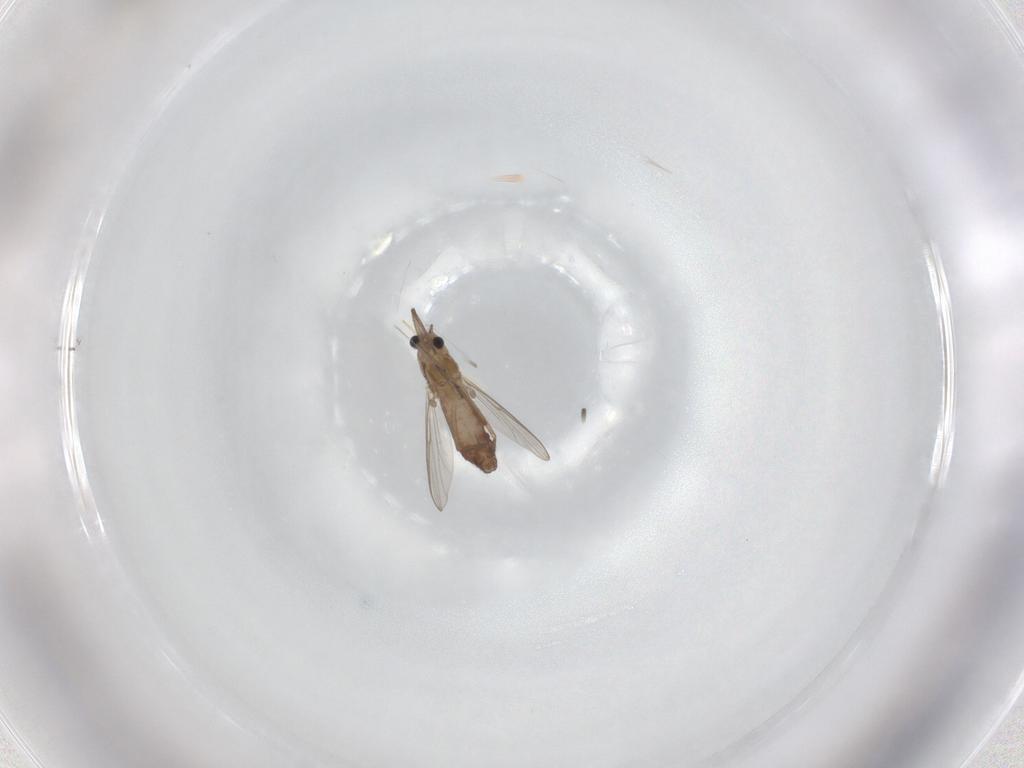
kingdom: Animalia
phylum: Arthropoda
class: Insecta
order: Diptera
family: Chironomidae
